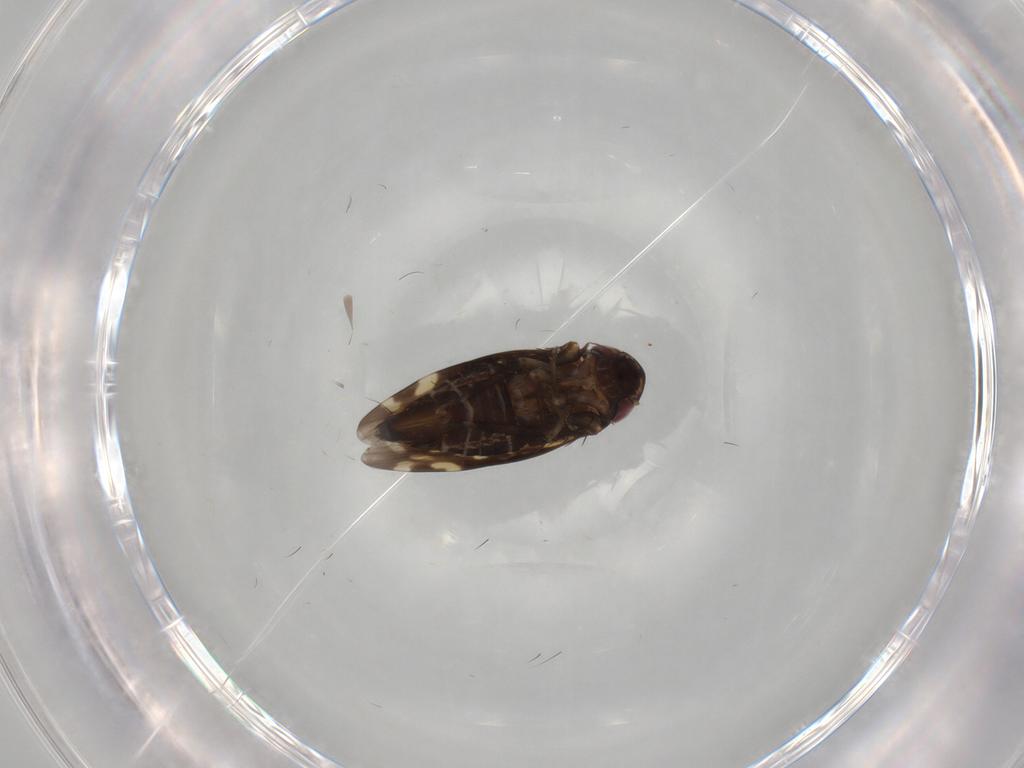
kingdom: Animalia
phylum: Arthropoda
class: Insecta
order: Hemiptera
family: Cicadellidae
